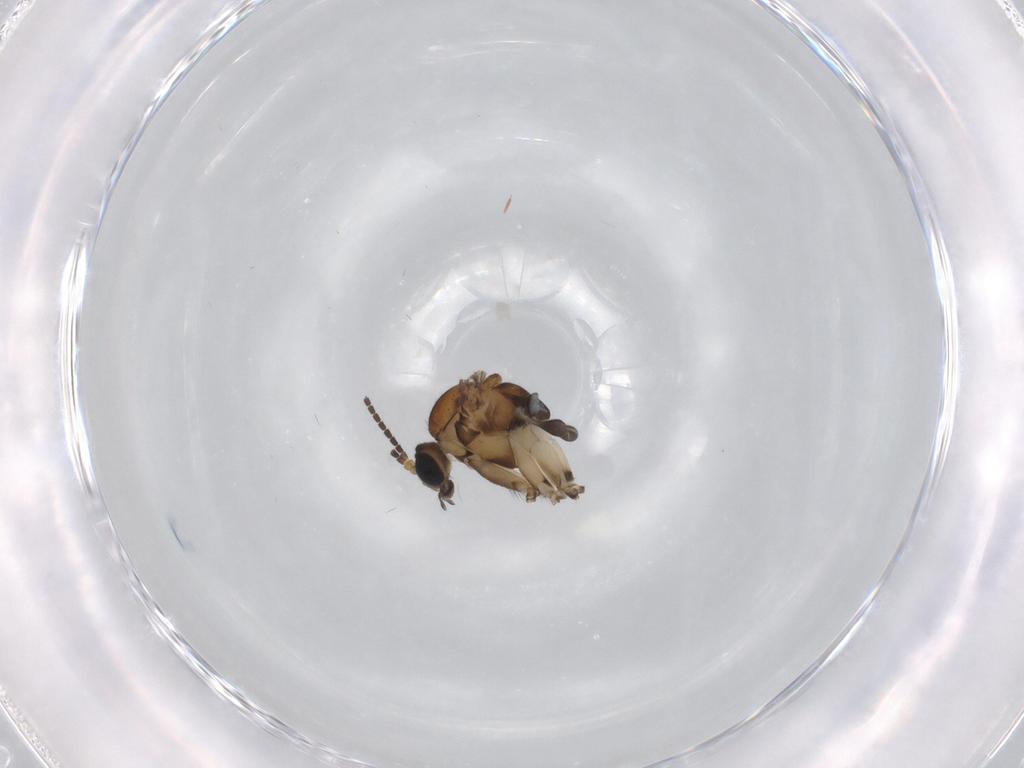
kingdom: Animalia
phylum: Arthropoda
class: Insecta
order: Diptera
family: Sciaridae
